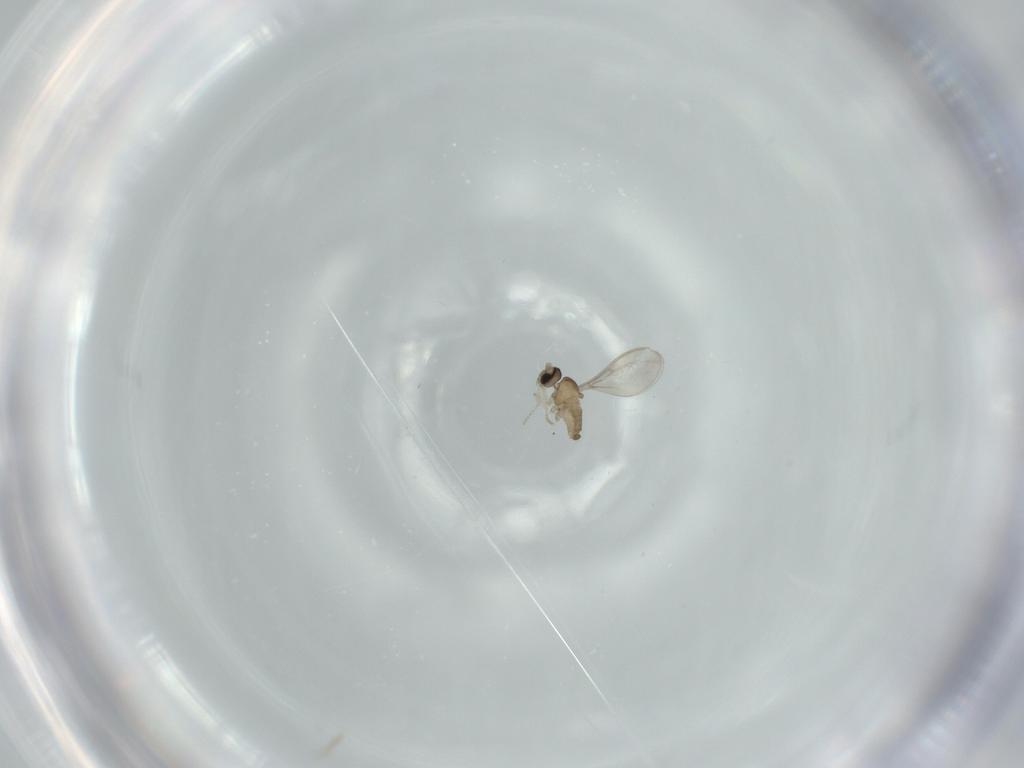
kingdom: Animalia
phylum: Arthropoda
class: Insecta
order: Diptera
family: Cecidomyiidae
